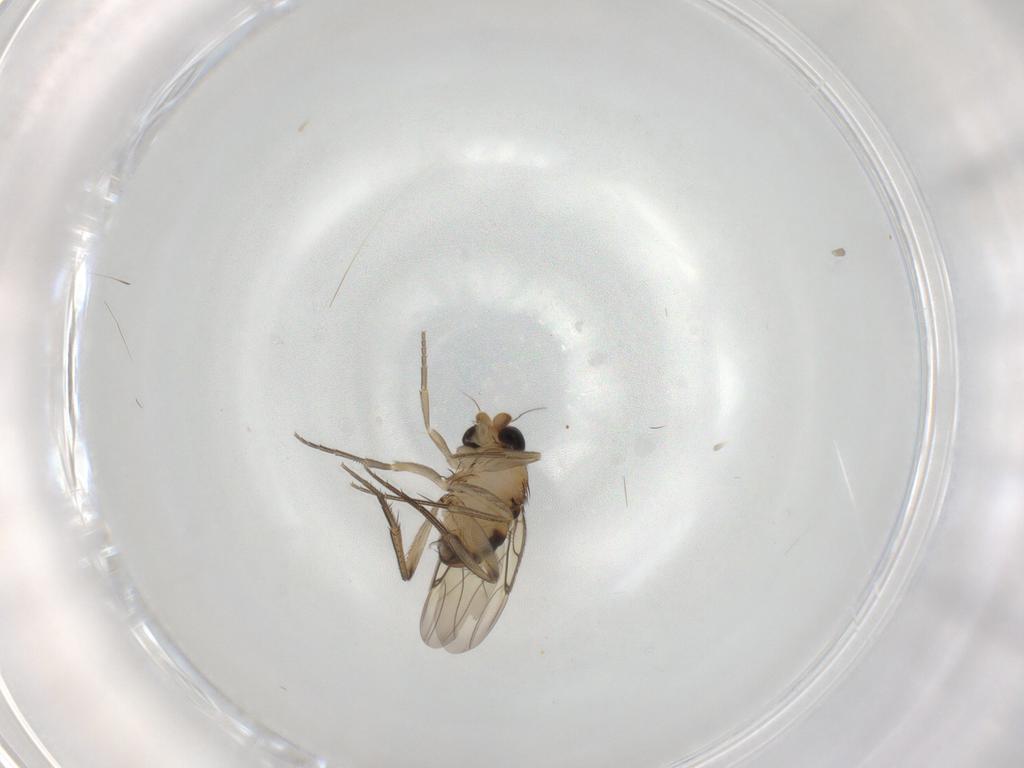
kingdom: Animalia
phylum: Arthropoda
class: Insecta
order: Diptera
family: Phoridae
